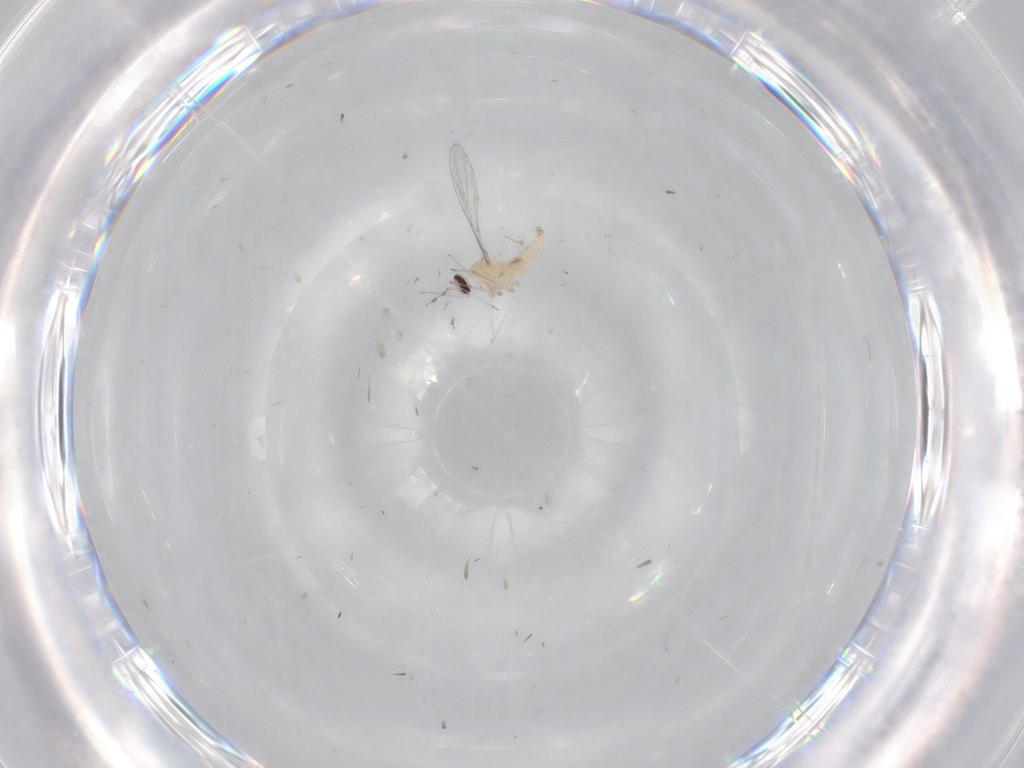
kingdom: Animalia
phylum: Arthropoda
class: Insecta
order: Diptera
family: Cecidomyiidae
